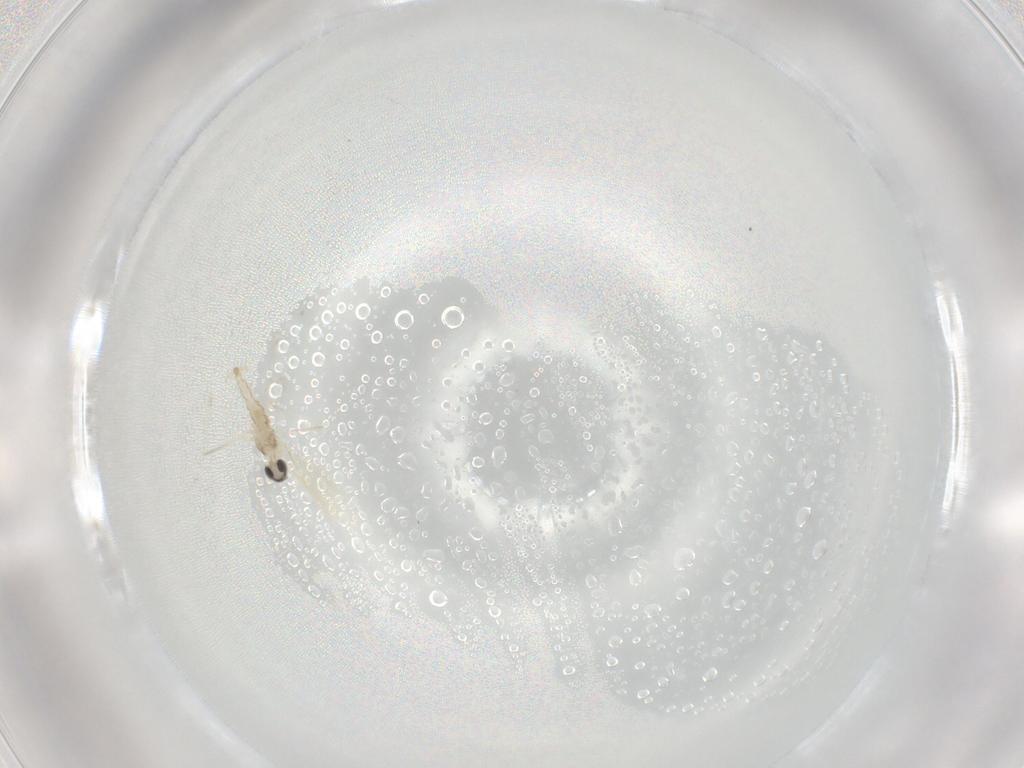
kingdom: Animalia
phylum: Arthropoda
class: Insecta
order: Diptera
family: Cecidomyiidae
